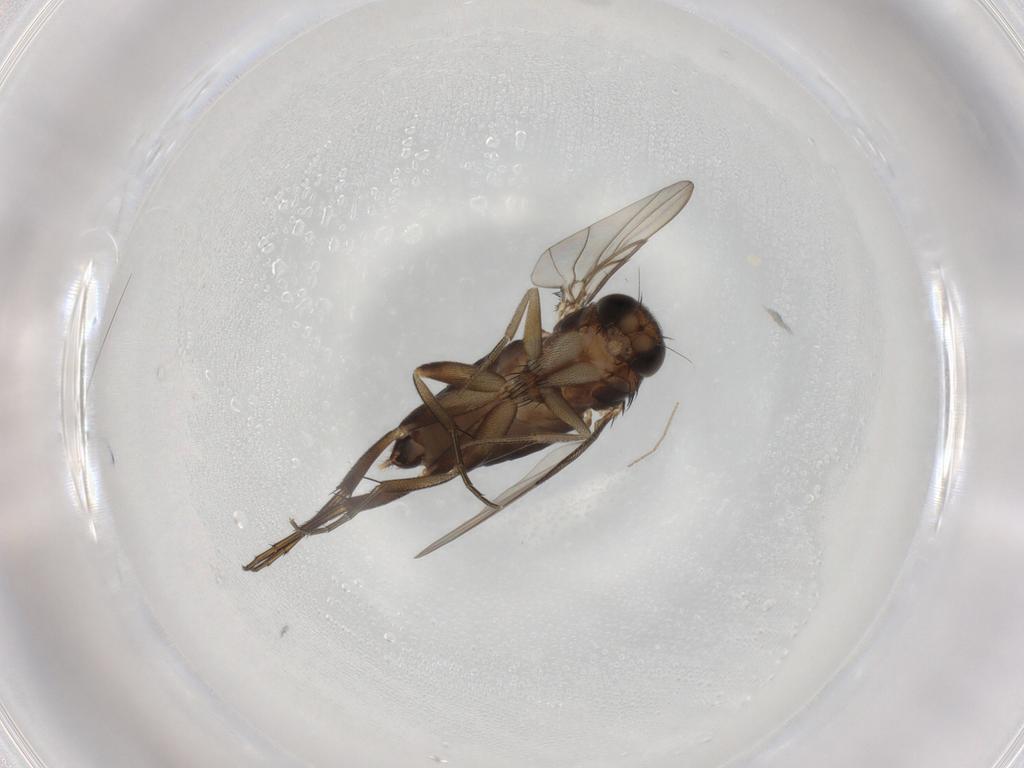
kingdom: Animalia
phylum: Arthropoda
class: Insecta
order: Diptera
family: Phoridae
